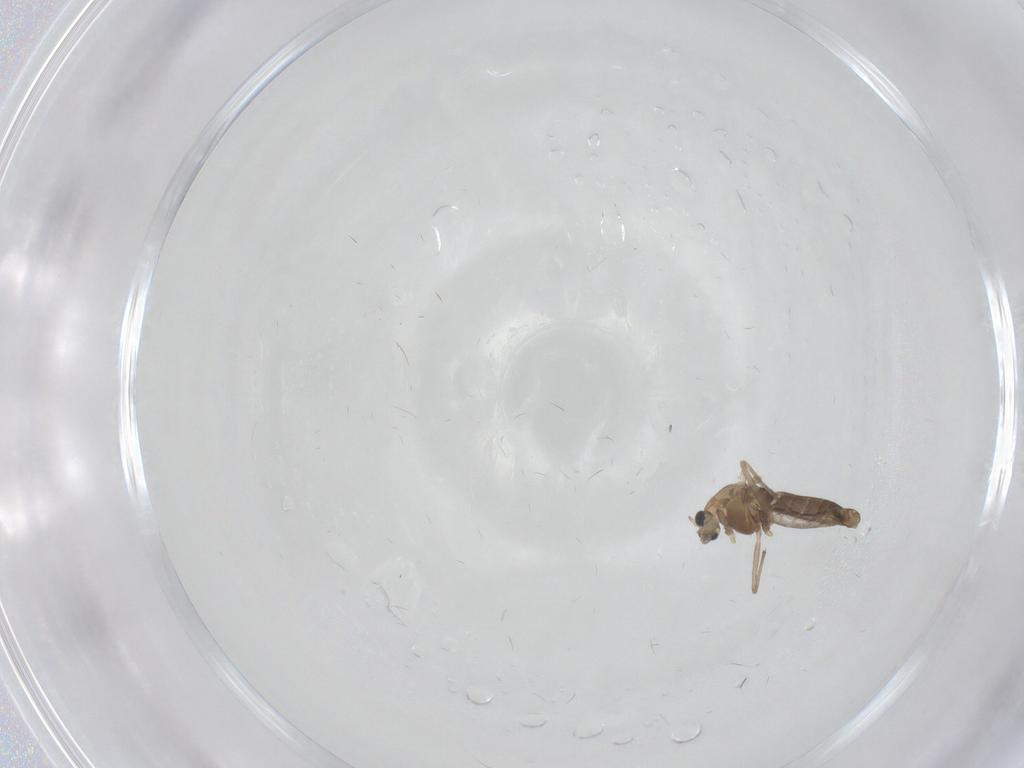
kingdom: Animalia
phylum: Arthropoda
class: Insecta
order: Diptera
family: Chironomidae
